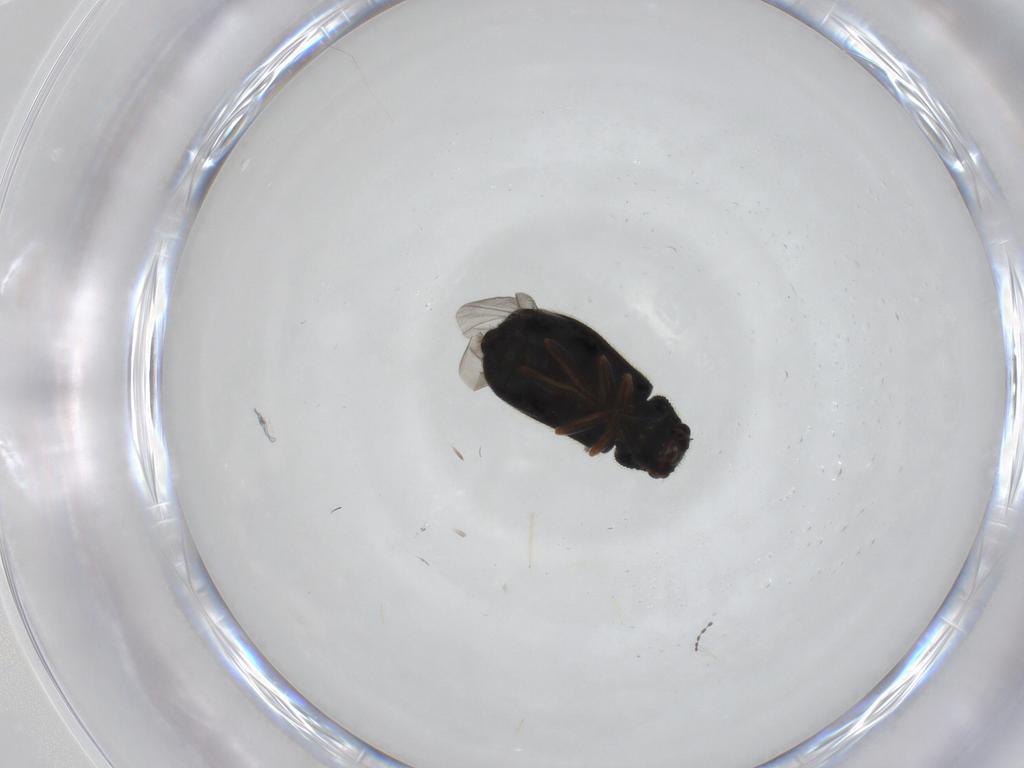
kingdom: Animalia
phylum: Arthropoda
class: Insecta
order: Coleoptera
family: Melyridae
